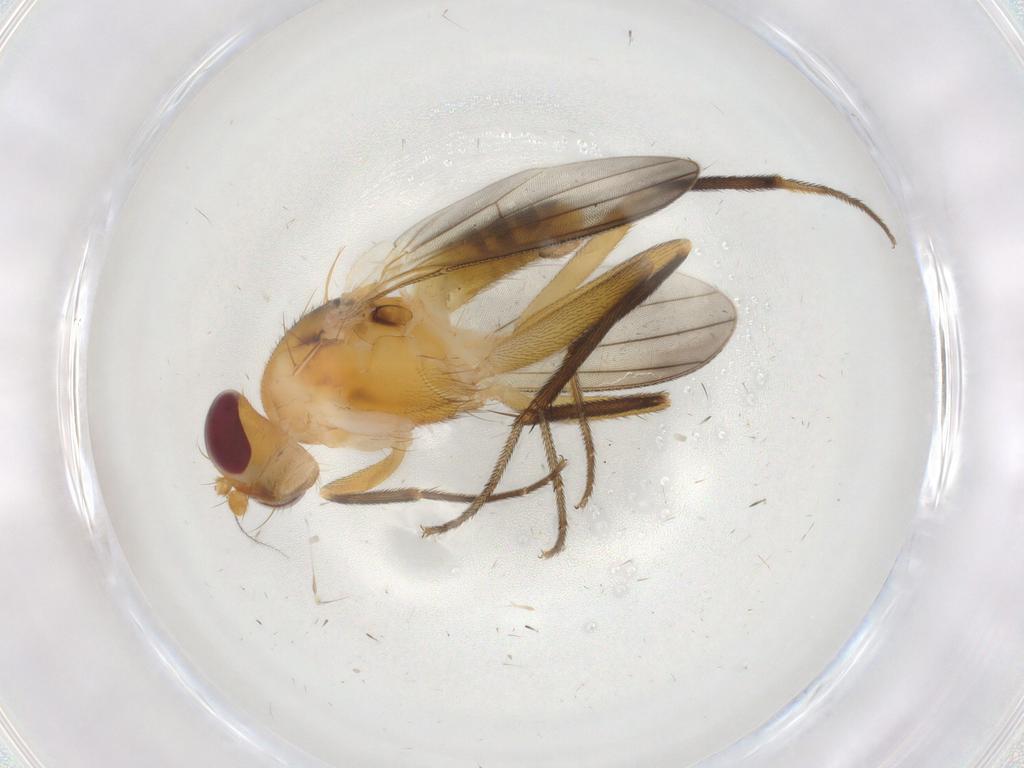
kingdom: Animalia
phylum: Arthropoda
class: Insecta
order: Diptera
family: Clusiidae
